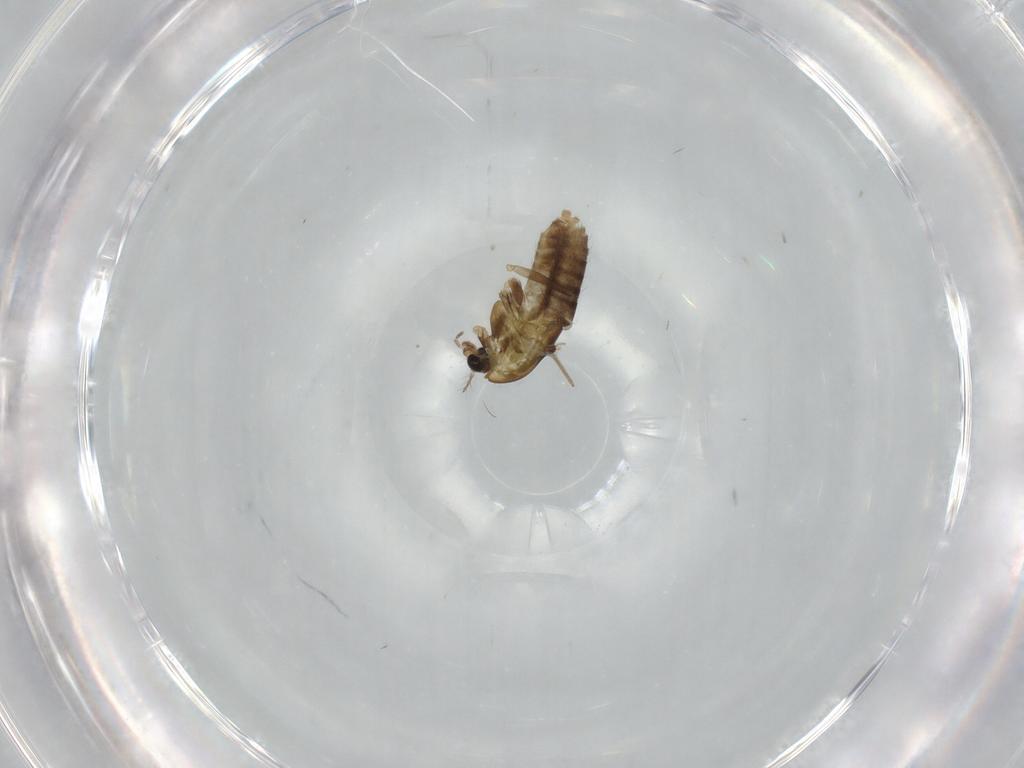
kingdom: Animalia
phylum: Arthropoda
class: Insecta
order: Diptera
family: Chironomidae
